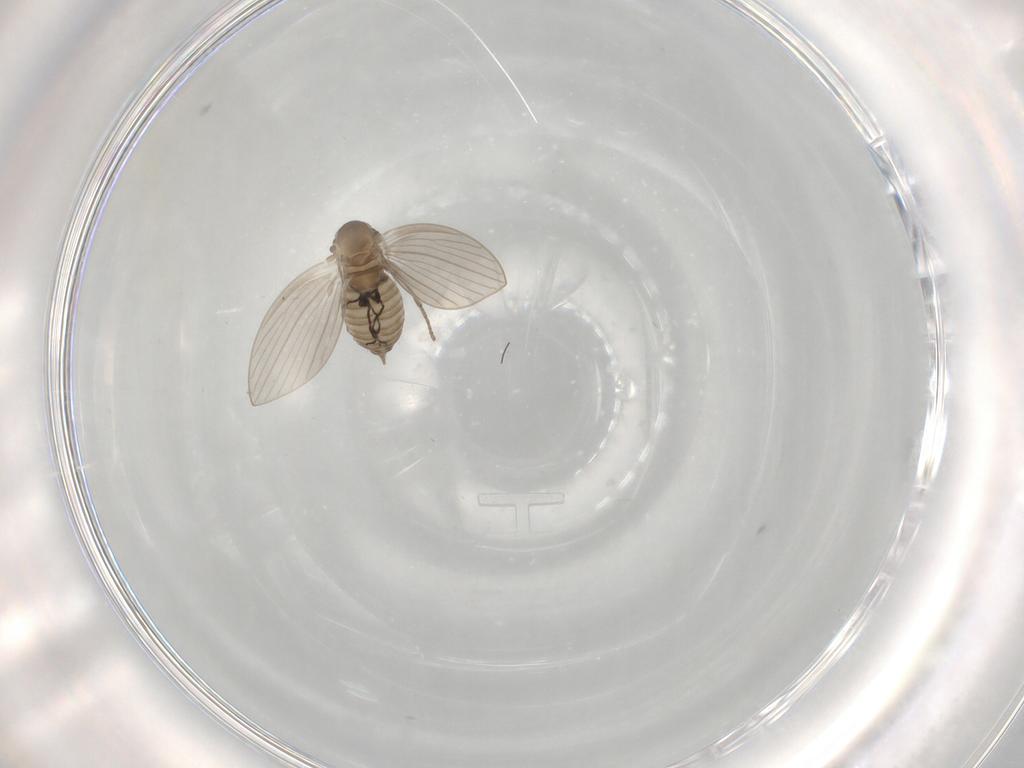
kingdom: Animalia
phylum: Arthropoda
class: Insecta
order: Diptera
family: Psychodidae
